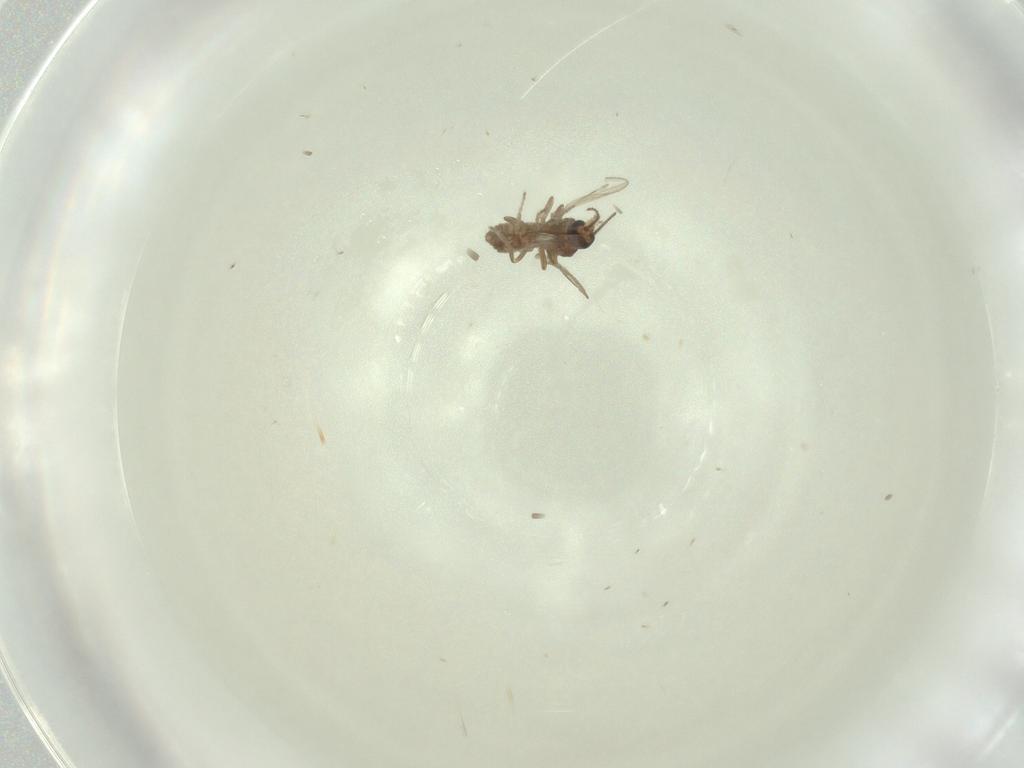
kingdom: Animalia
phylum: Arthropoda
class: Insecta
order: Diptera
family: Ceratopogonidae
